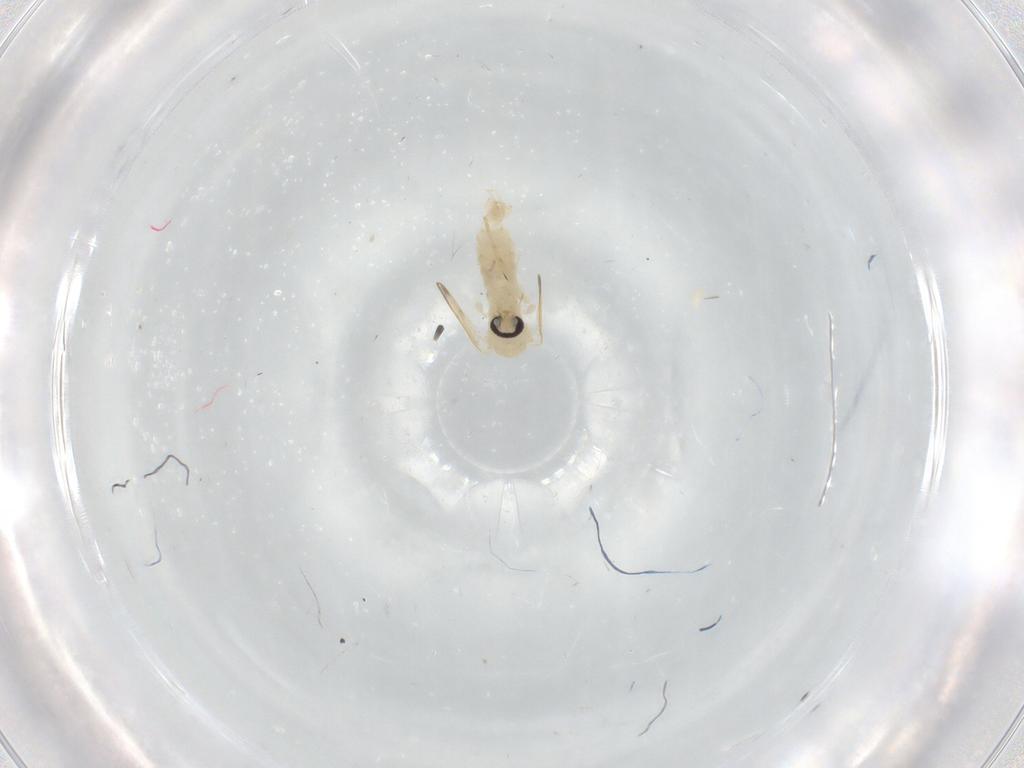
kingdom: Animalia
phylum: Arthropoda
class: Insecta
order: Diptera
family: Psychodidae
